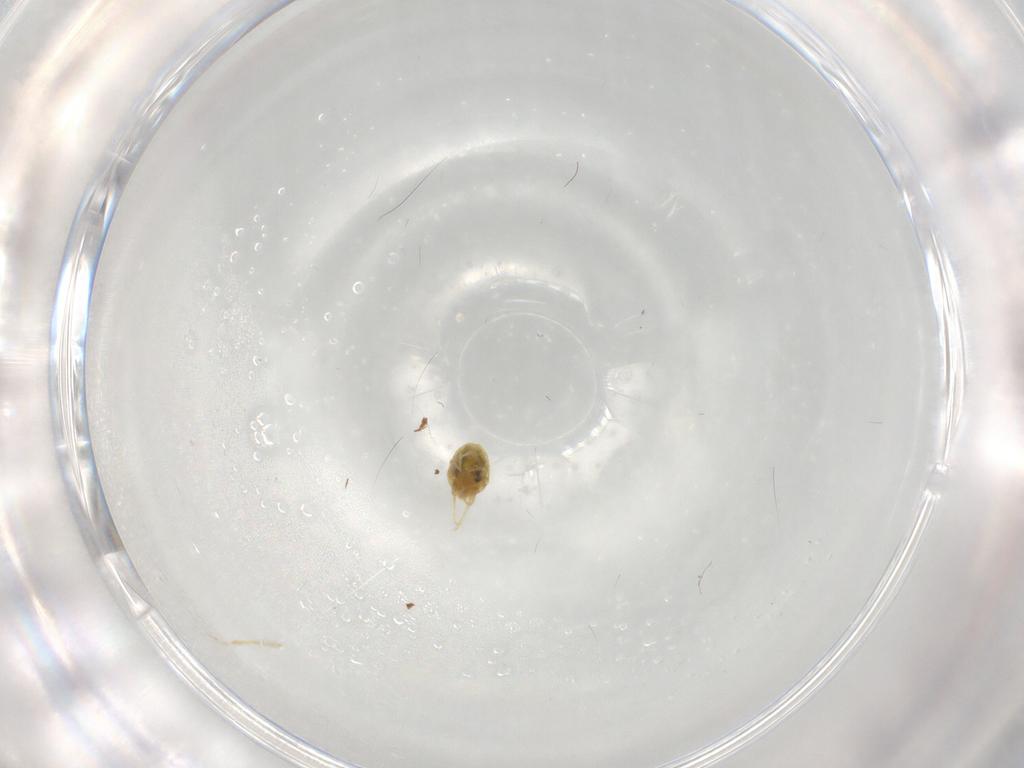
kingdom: Animalia
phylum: Arthropoda
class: Arachnida
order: Trombidiformes
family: Tetranychidae
